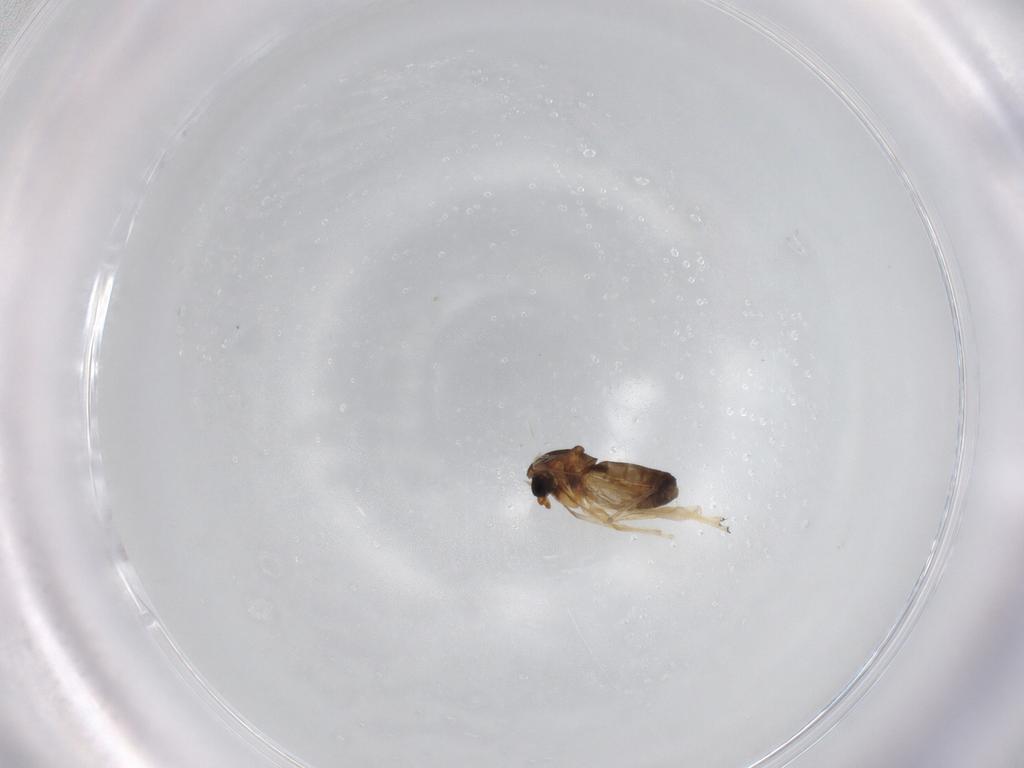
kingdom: Animalia
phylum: Arthropoda
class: Insecta
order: Diptera
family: Chironomidae
